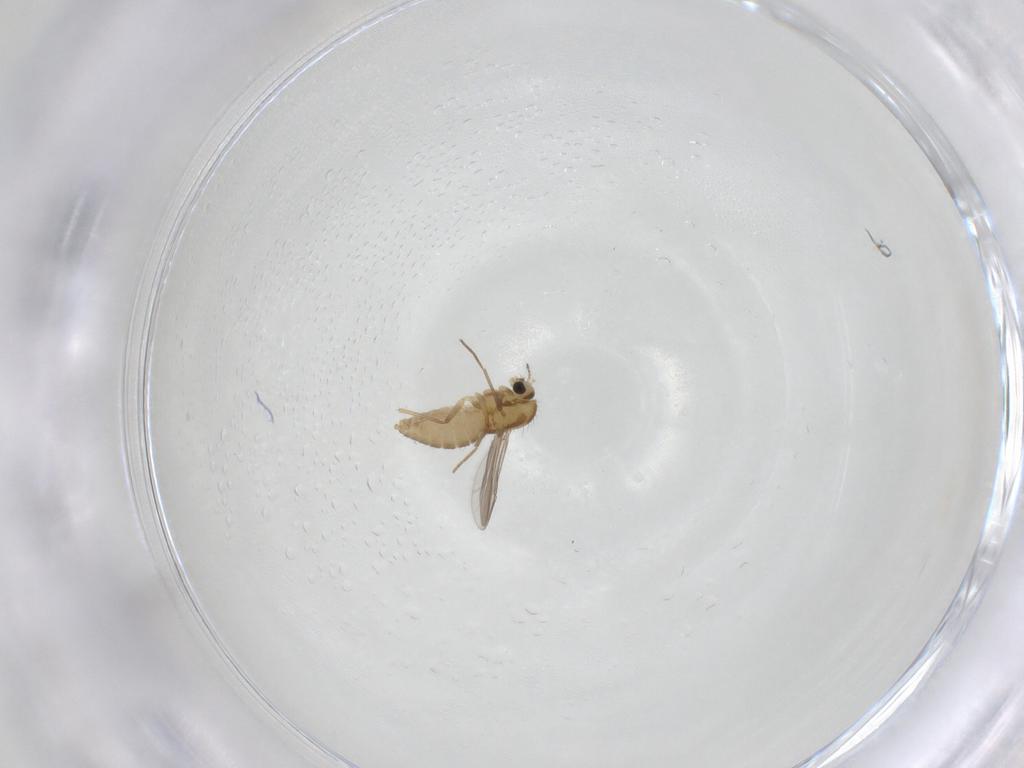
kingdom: Animalia
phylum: Arthropoda
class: Insecta
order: Diptera
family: Chironomidae
